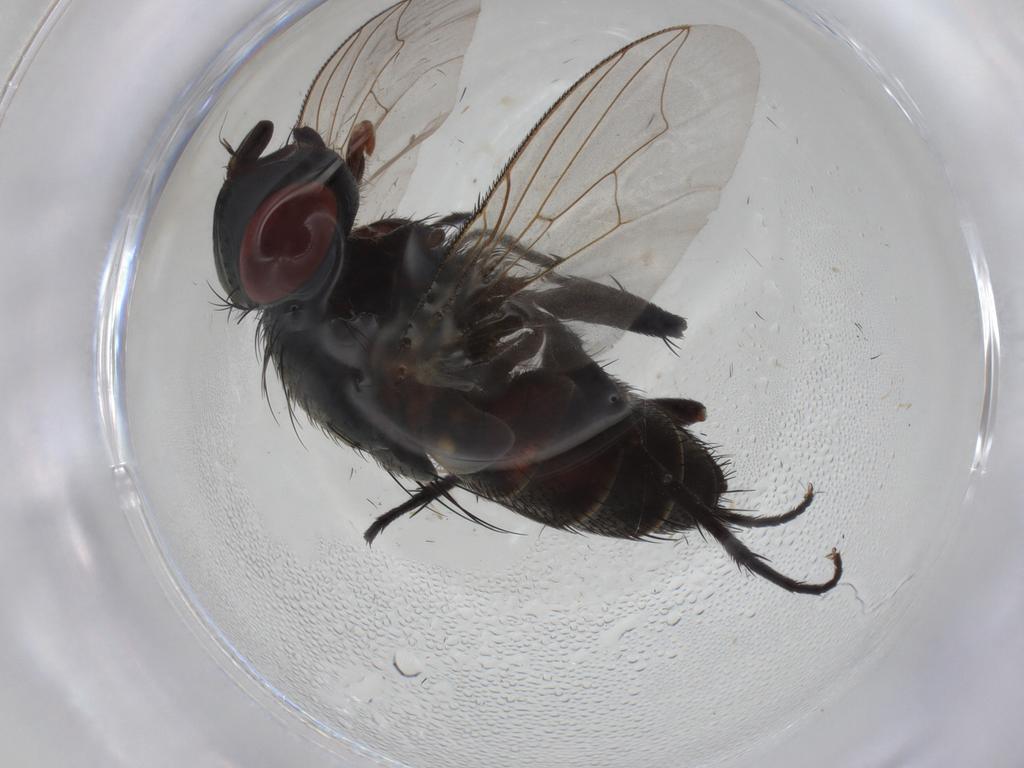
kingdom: Animalia
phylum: Arthropoda
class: Insecta
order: Diptera
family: Sarcophagidae
